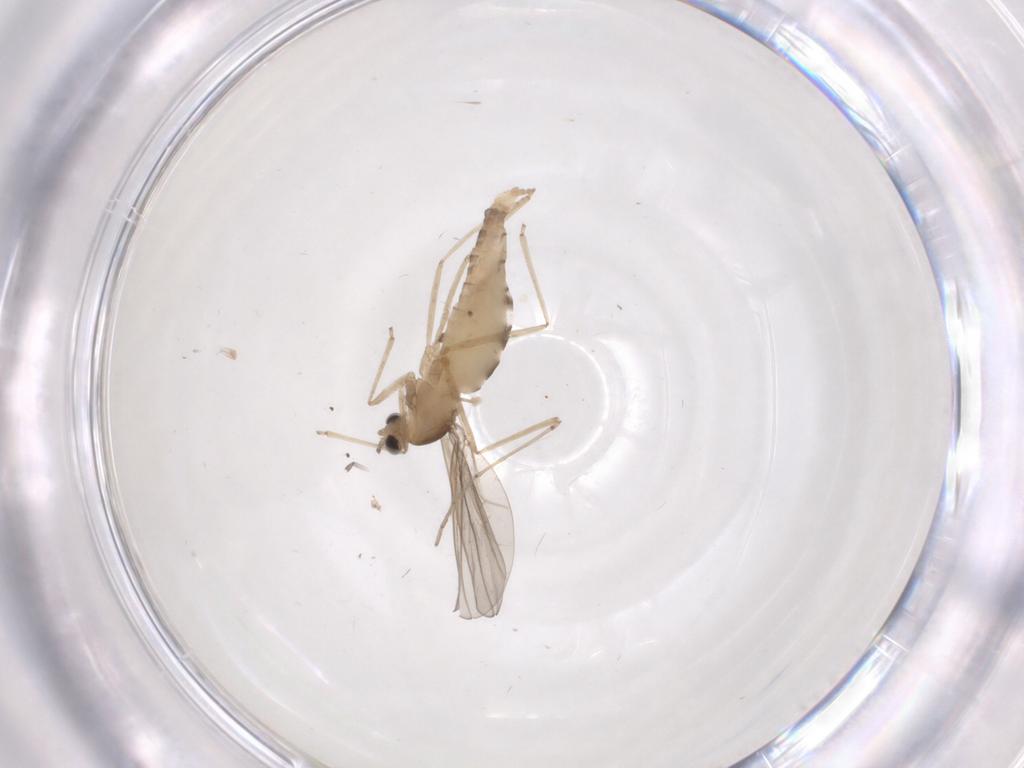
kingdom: Animalia
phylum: Arthropoda
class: Insecta
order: Diptera
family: Cecidomyiidae
